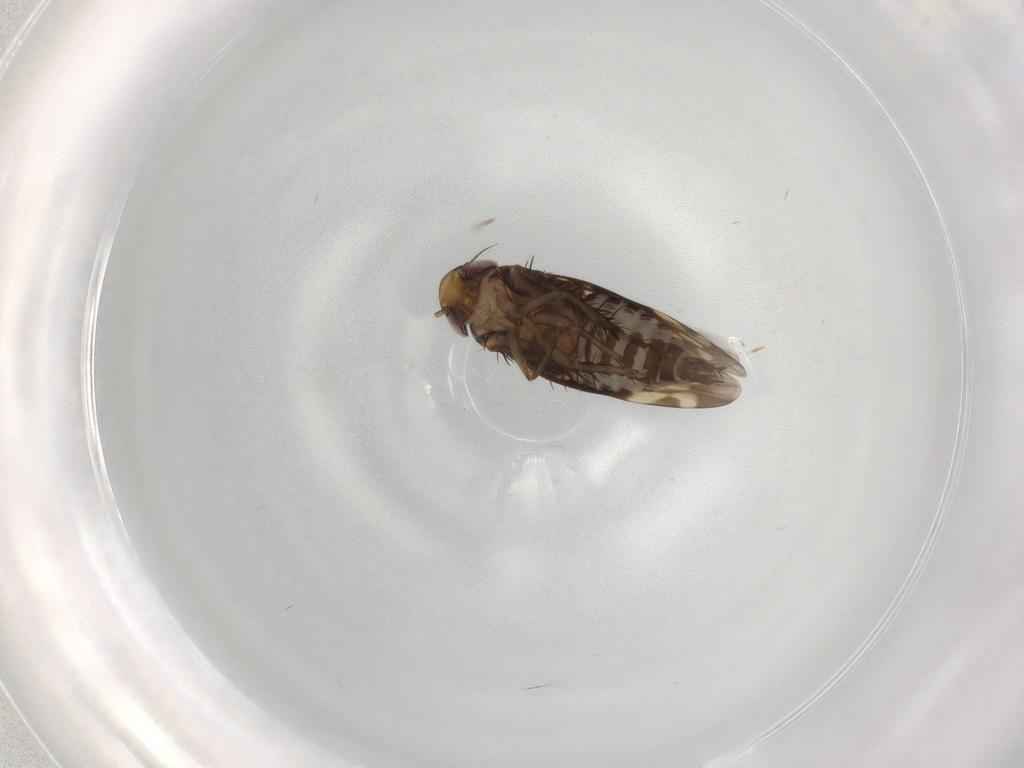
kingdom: Animalia
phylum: Arthropoda
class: Insecta
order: Hemiptera
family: Cicadellidae
